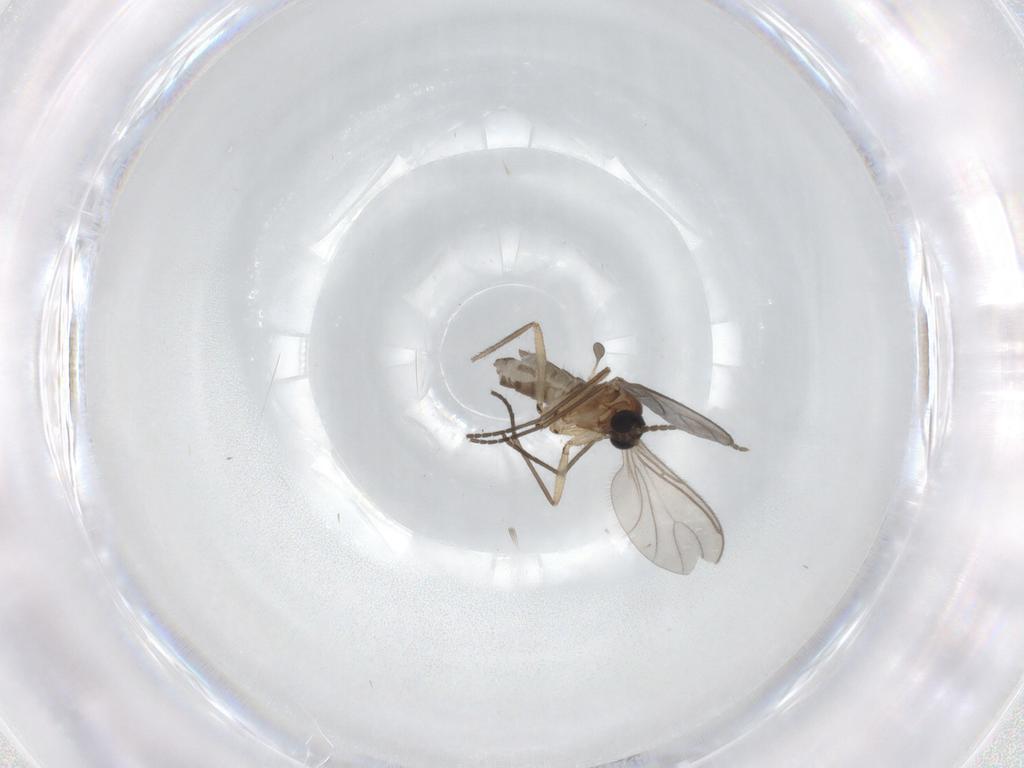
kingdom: Animalia
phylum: Arthropoda
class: Insecta
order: Diptera
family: Sciaridae
